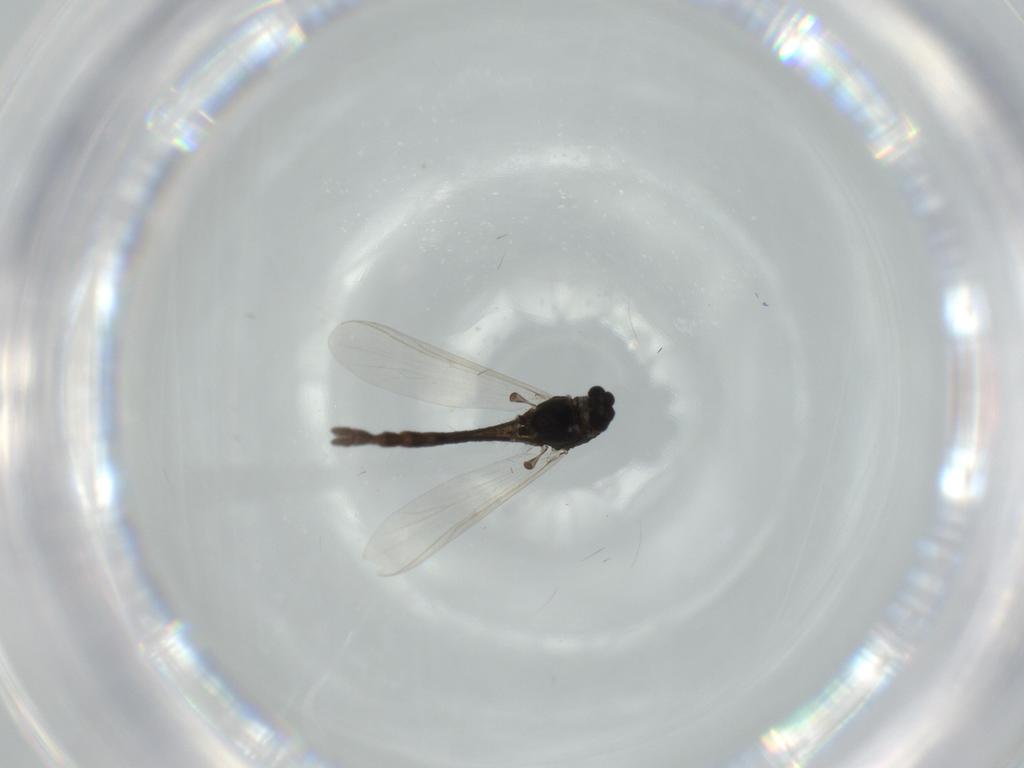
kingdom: Animalia
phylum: Arthropoda
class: Insecta
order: Diptera
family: Chironomidae
